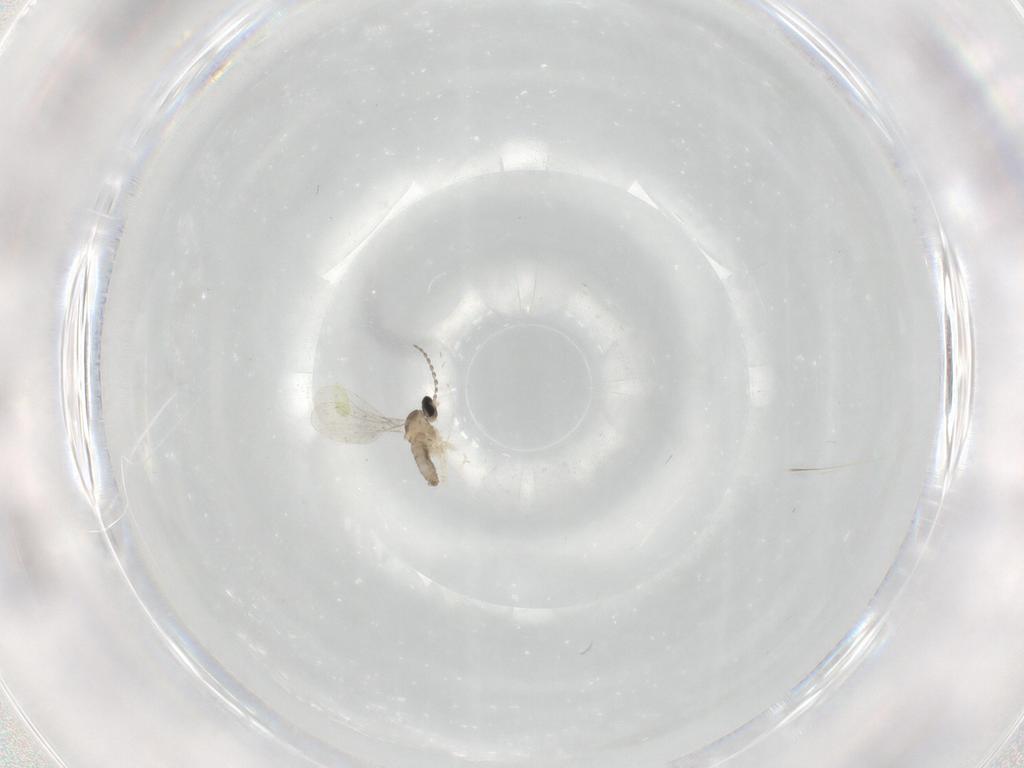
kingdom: Animalia
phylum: Arthropoda
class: Insecta
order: Diptera
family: Cecidomyiidae
